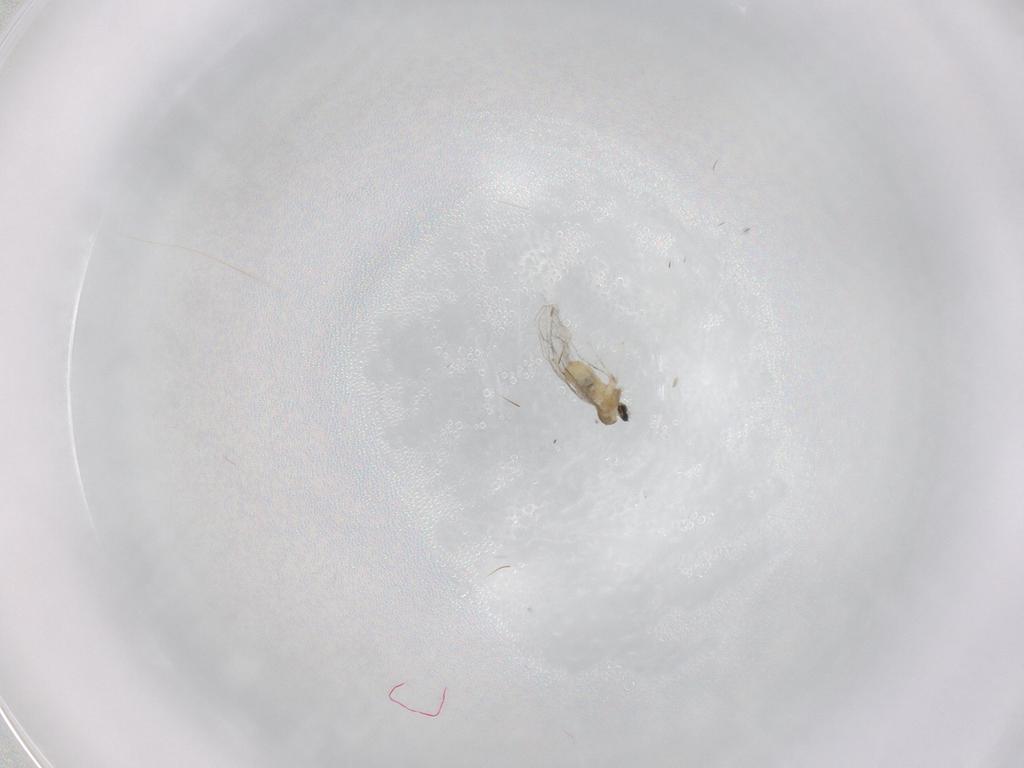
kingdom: Animalia
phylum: Arthropoda
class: Insecta
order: Diptera
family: Cecidomyiidae
